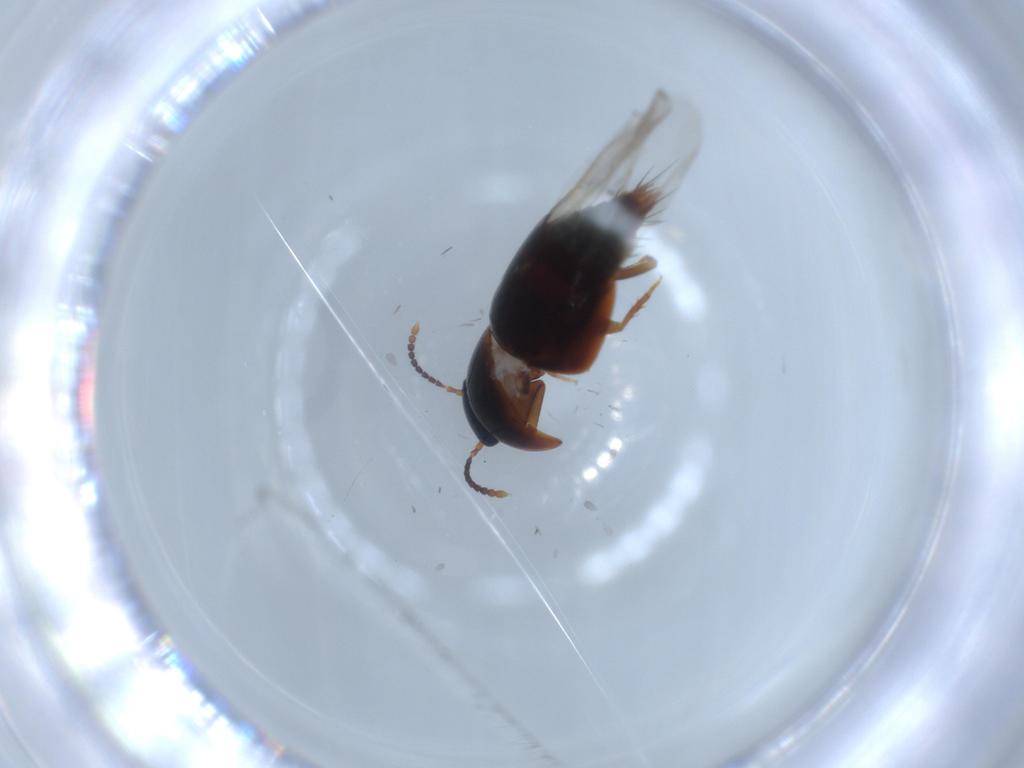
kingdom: Animalia
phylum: Arthropoda
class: Insecta
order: Coleoptera
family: Staphylinidae
